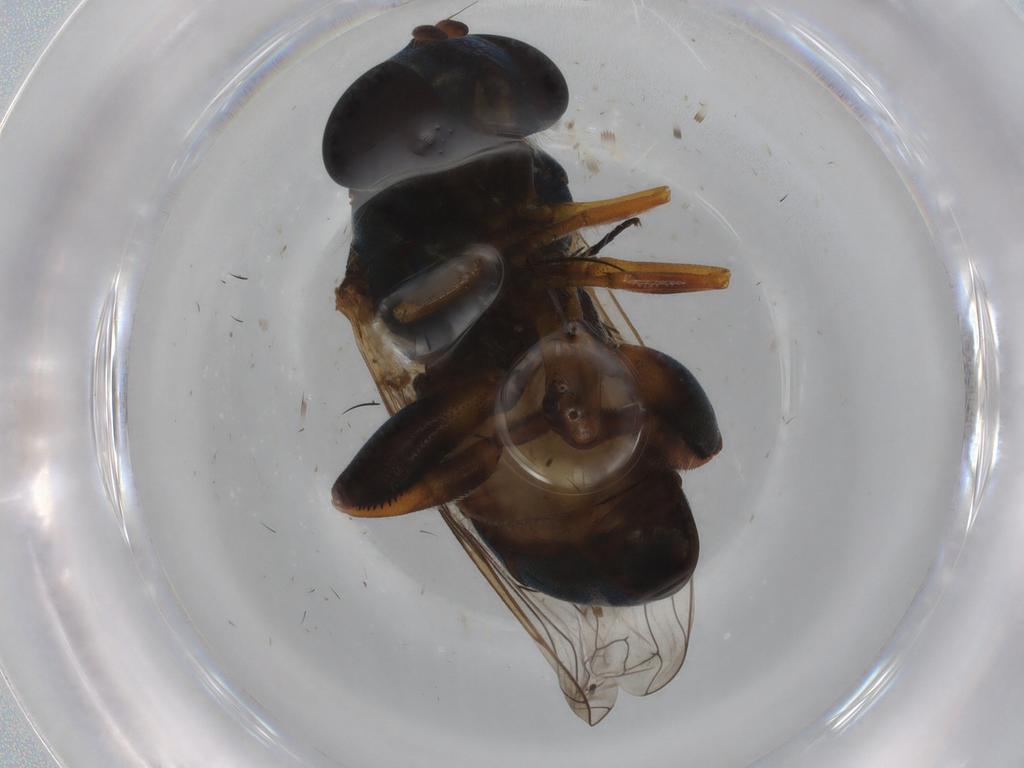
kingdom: Animalia
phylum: Arthropoda
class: Insecta
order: Diptera
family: Syrphidae
